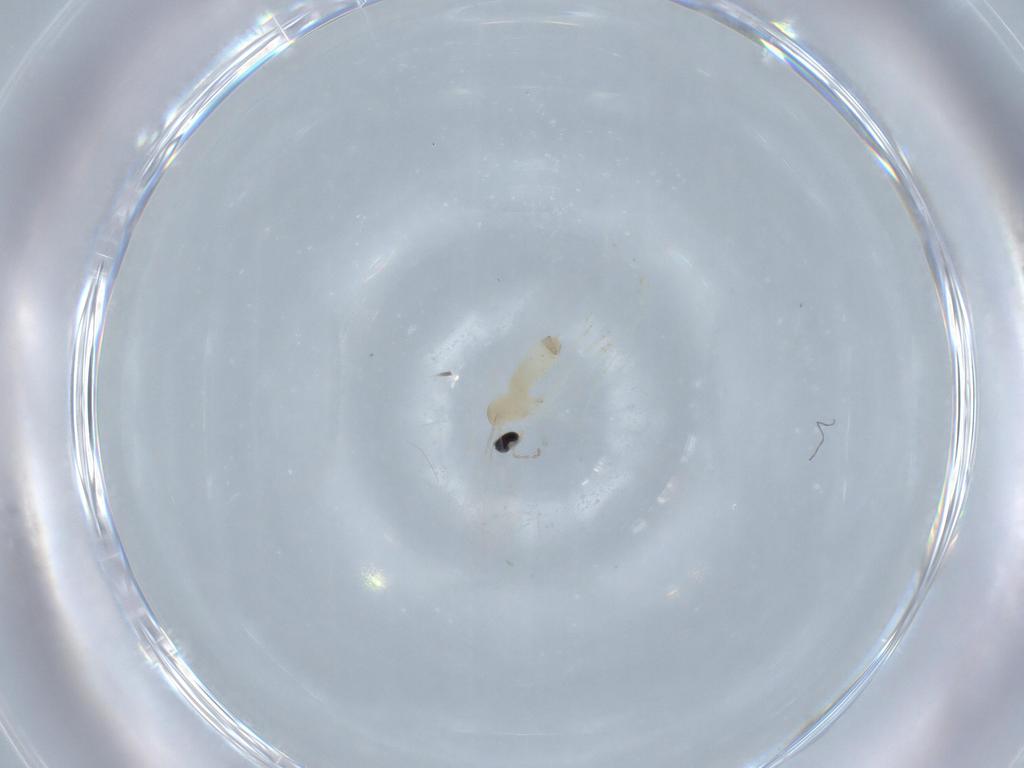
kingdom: Animalia
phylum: Arthropoda
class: Insecta
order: Diptera
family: Cecidomyiidae
